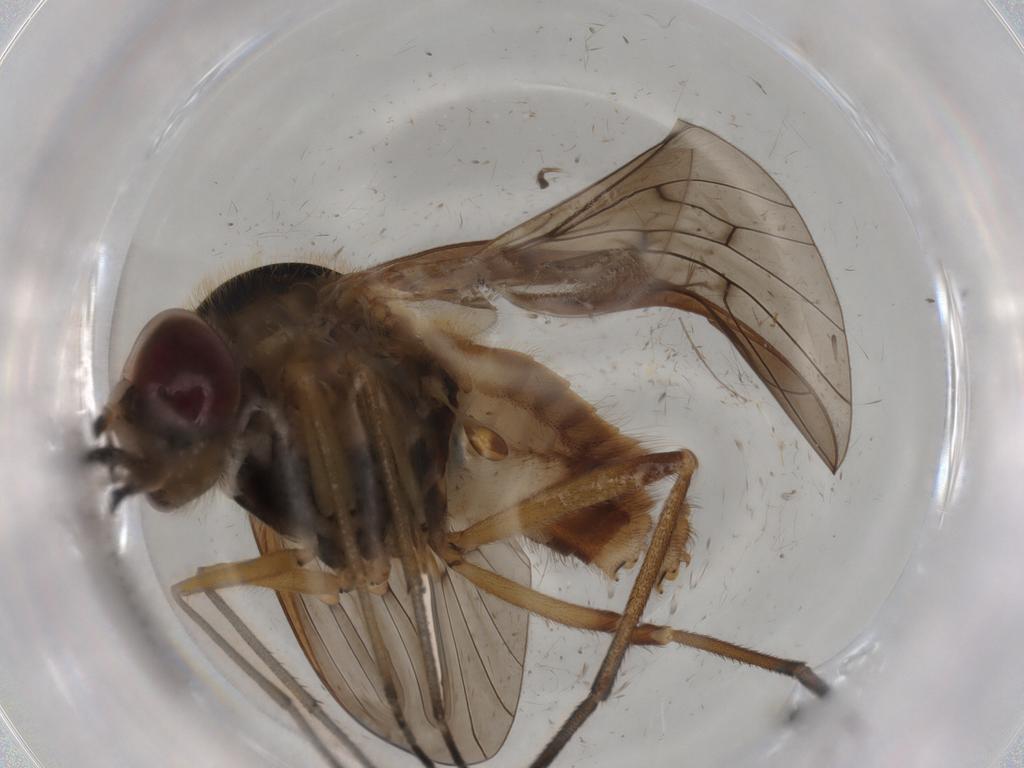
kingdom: Animalia
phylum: Arthropoda
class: Insecta
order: Diptera
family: Bombyliidae
